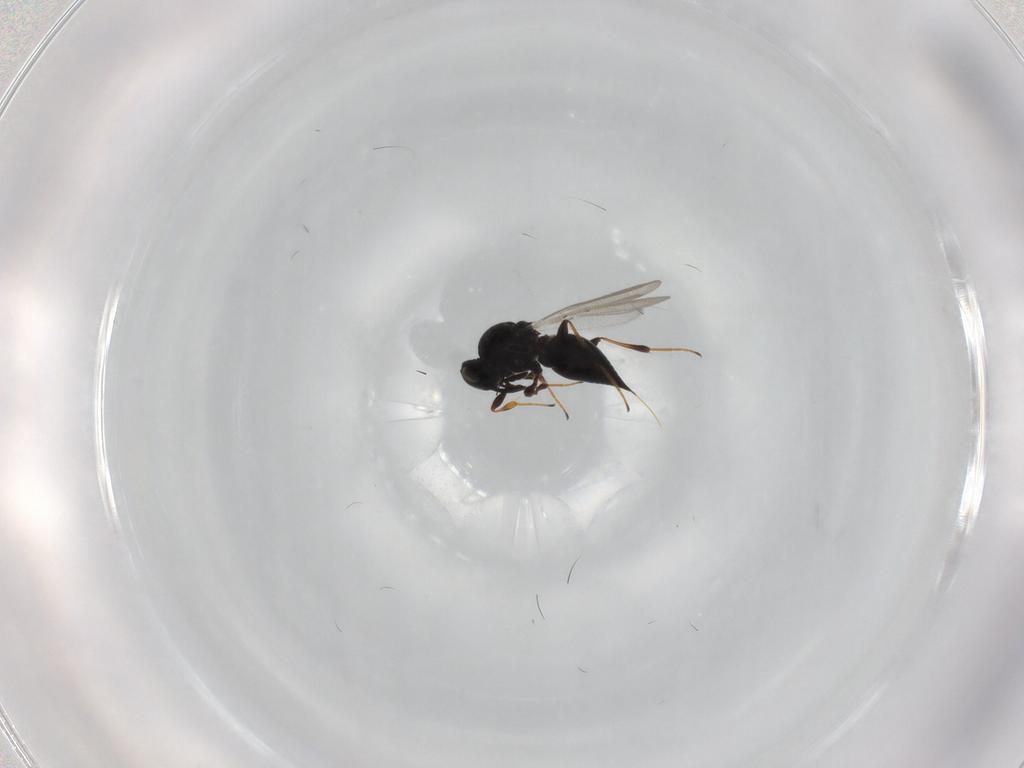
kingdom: Animalia
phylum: Arthropoda
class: Insecta
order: Hymenoptera
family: Platygastridae
